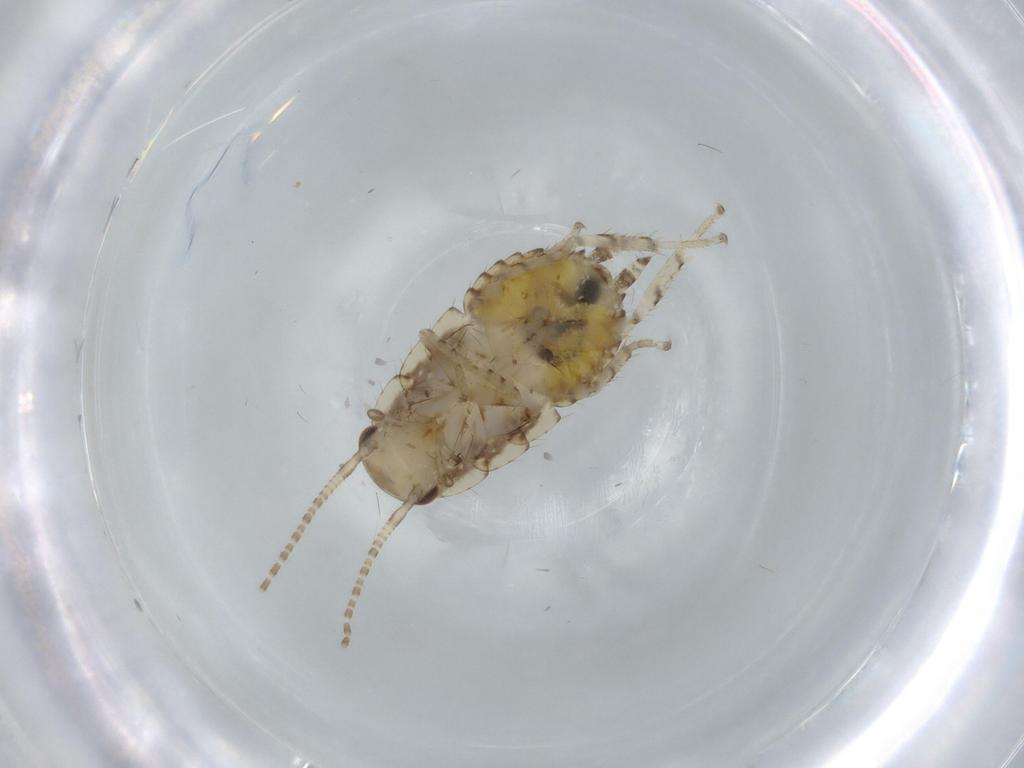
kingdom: Animalia
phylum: Arthropoda
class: Insecta
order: Blattodea
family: Ectobiidae
